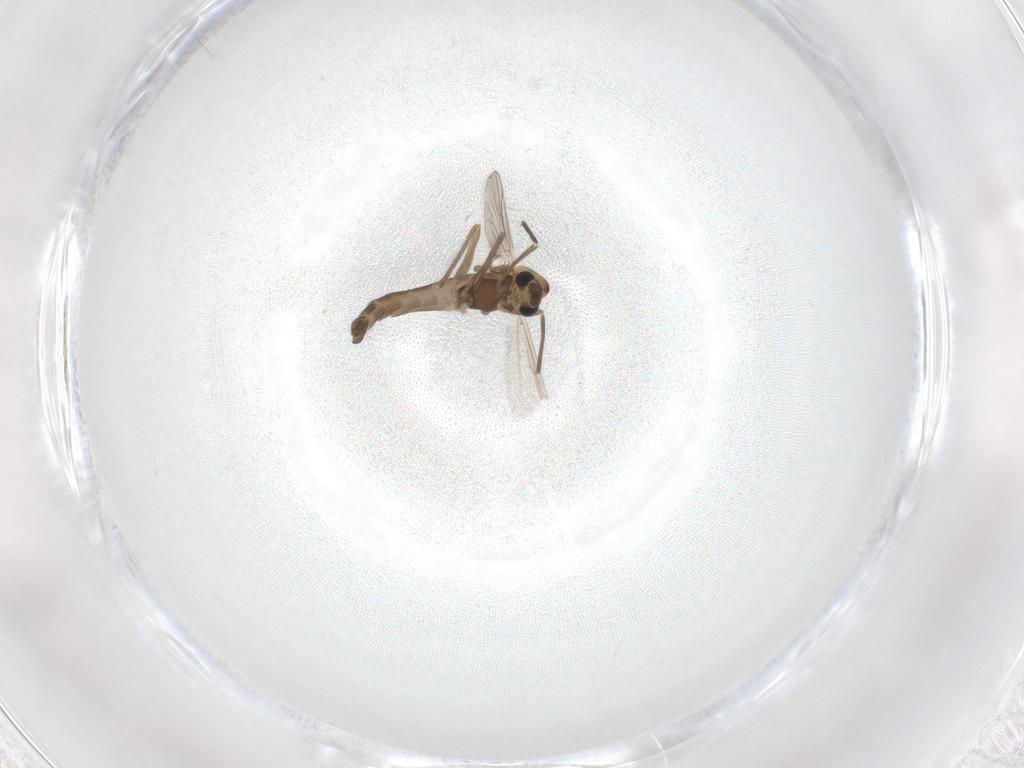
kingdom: Animalia
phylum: Arthropoda
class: Insecta
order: Diptera
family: Chironomidae
